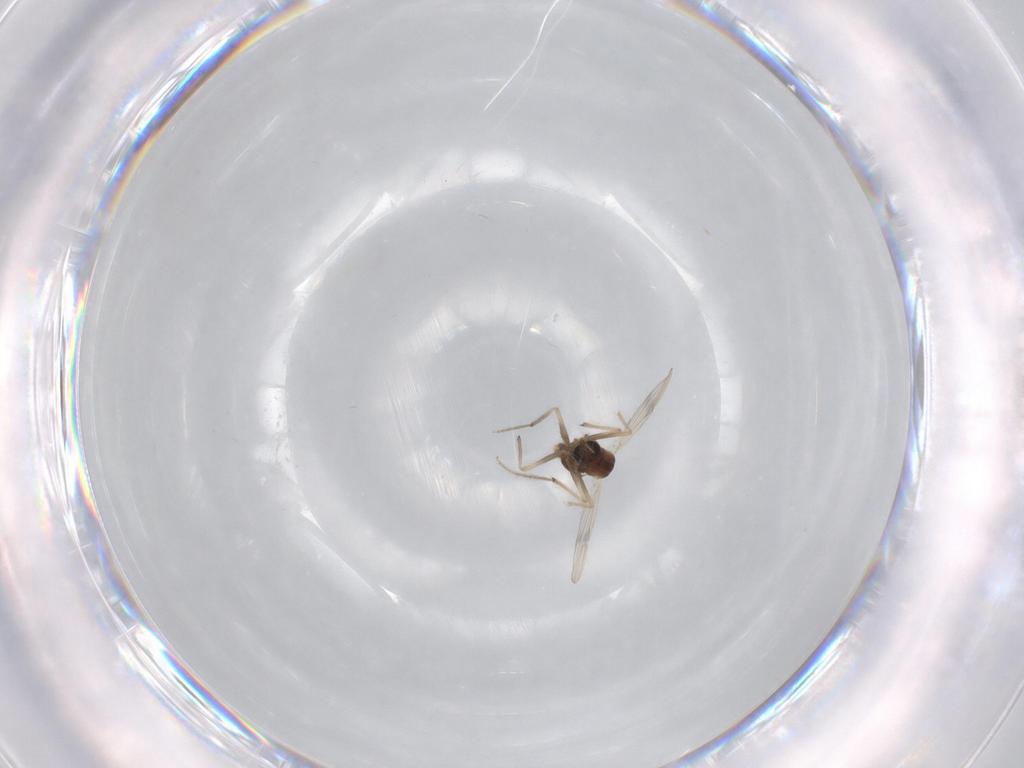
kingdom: Animalia
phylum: Arthropoda
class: Insecta
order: Diptera
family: Chironomidae
